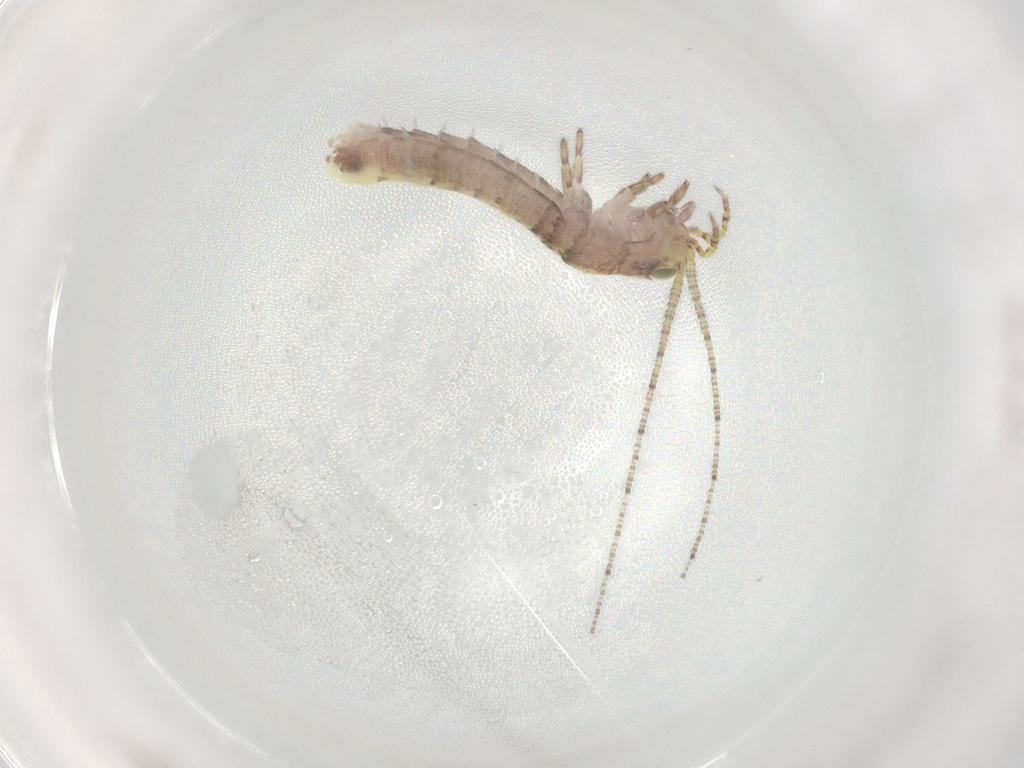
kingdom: Animalia
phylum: Arthropoda
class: Insecta
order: Archaeognatha
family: Machilidae
